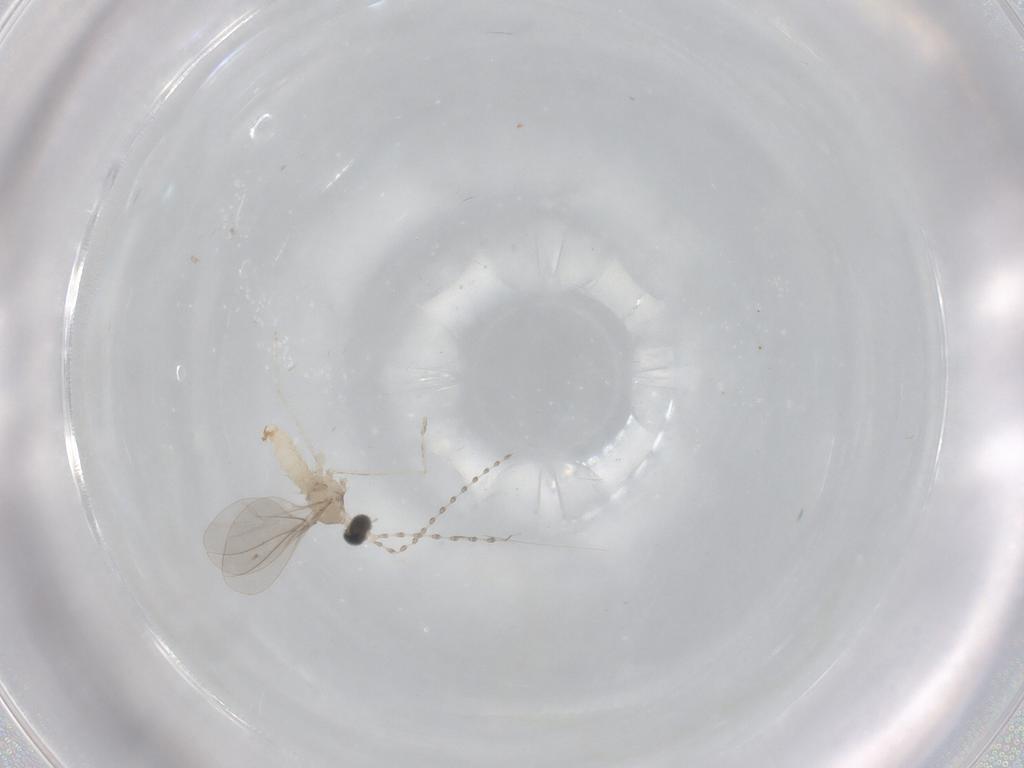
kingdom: Animalia
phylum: Arthropoda
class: Insecta
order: Diptera
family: Cecidomyiidae
